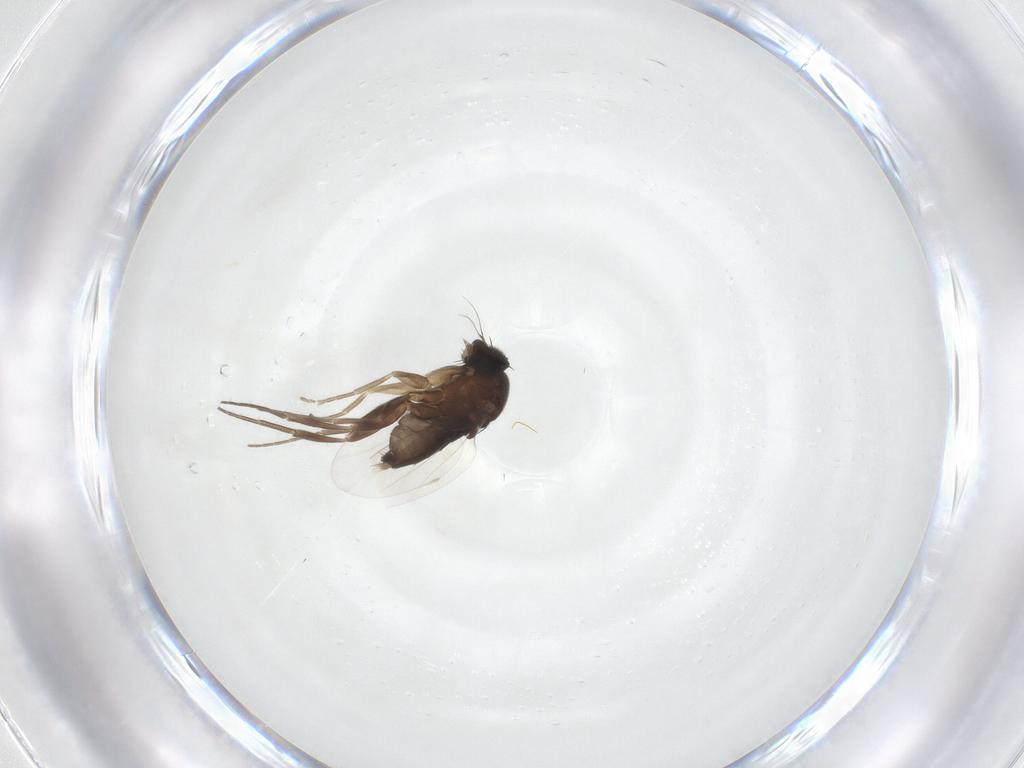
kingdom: Animalia
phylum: Arthropoda
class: Insecta
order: Diptera
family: Phoridae
